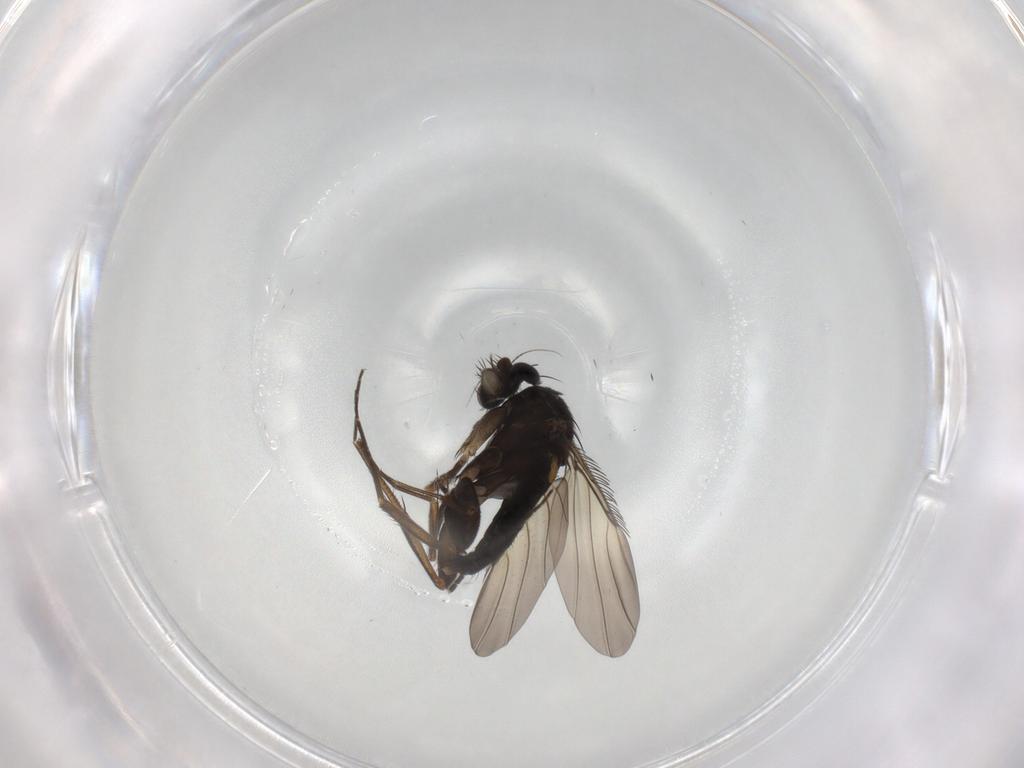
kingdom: Animalia
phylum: Arthropoda
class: Insecta
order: Diptera
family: Phoridae
